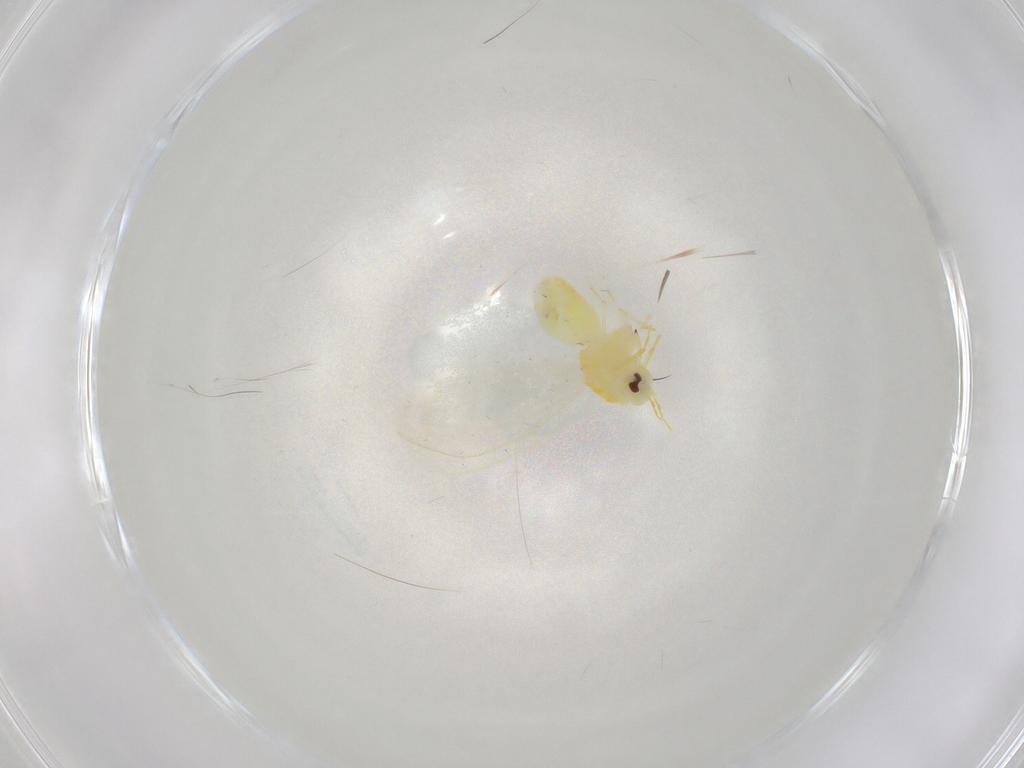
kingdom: Animalia
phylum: Arthropoda
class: Insecta
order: Hemiptera
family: Aleyrodidae
